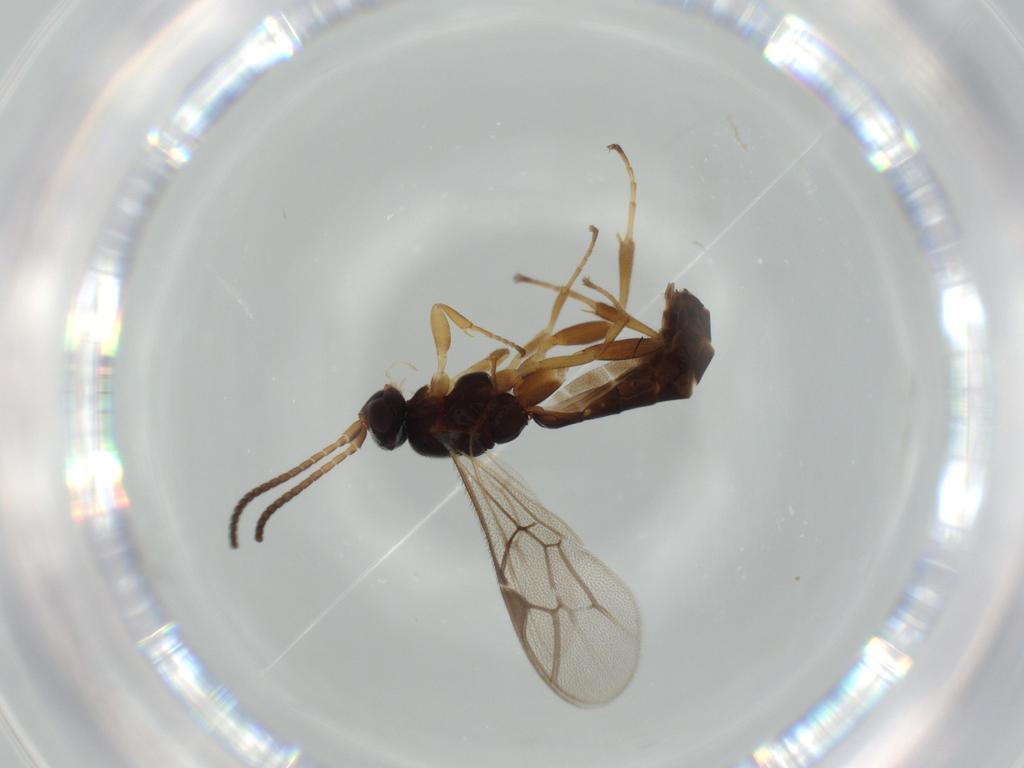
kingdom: Animalia
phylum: Arthropoda
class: Insecta
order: Hymenoptera
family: Ichneumonidae
